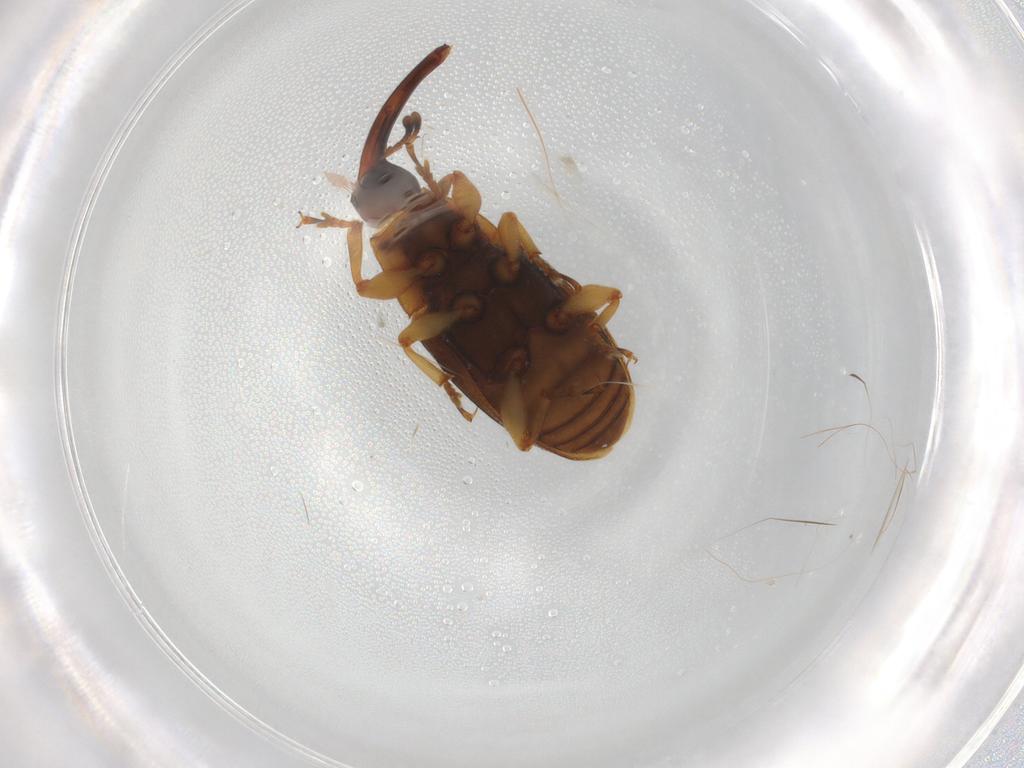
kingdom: Animalia
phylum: Arthropoda
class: Insecta
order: Coleoptera
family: Curculionidae
